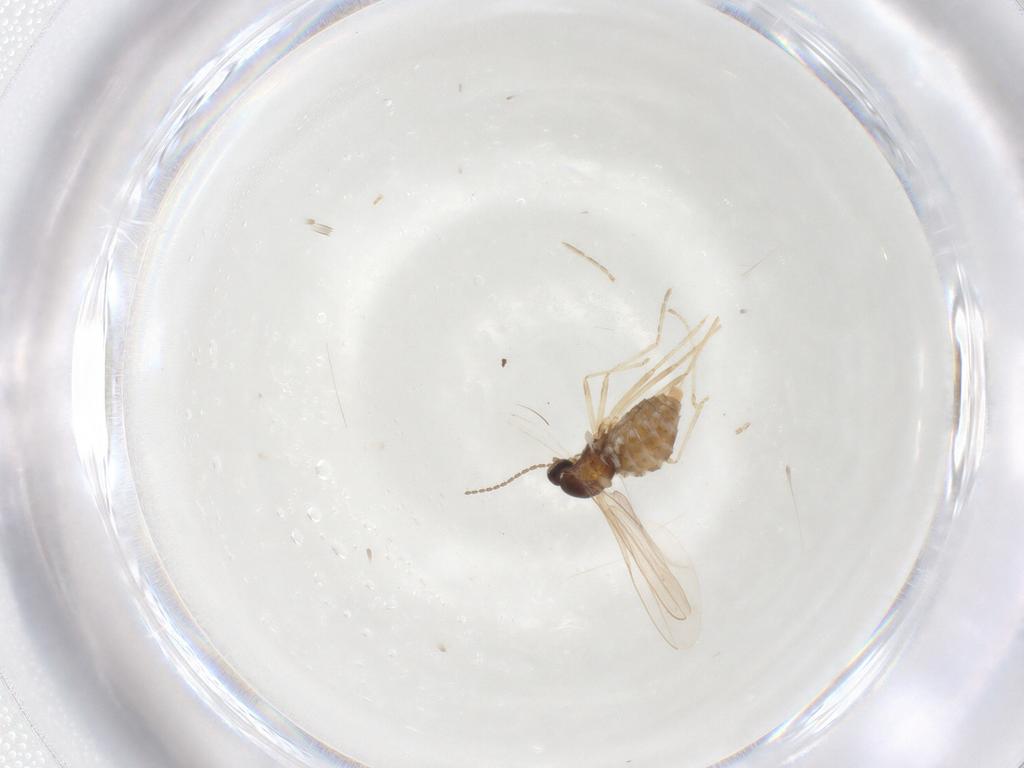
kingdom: Animalia
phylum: Arthropoda
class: Insecta
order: Diptera
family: Cecidomyiidae
